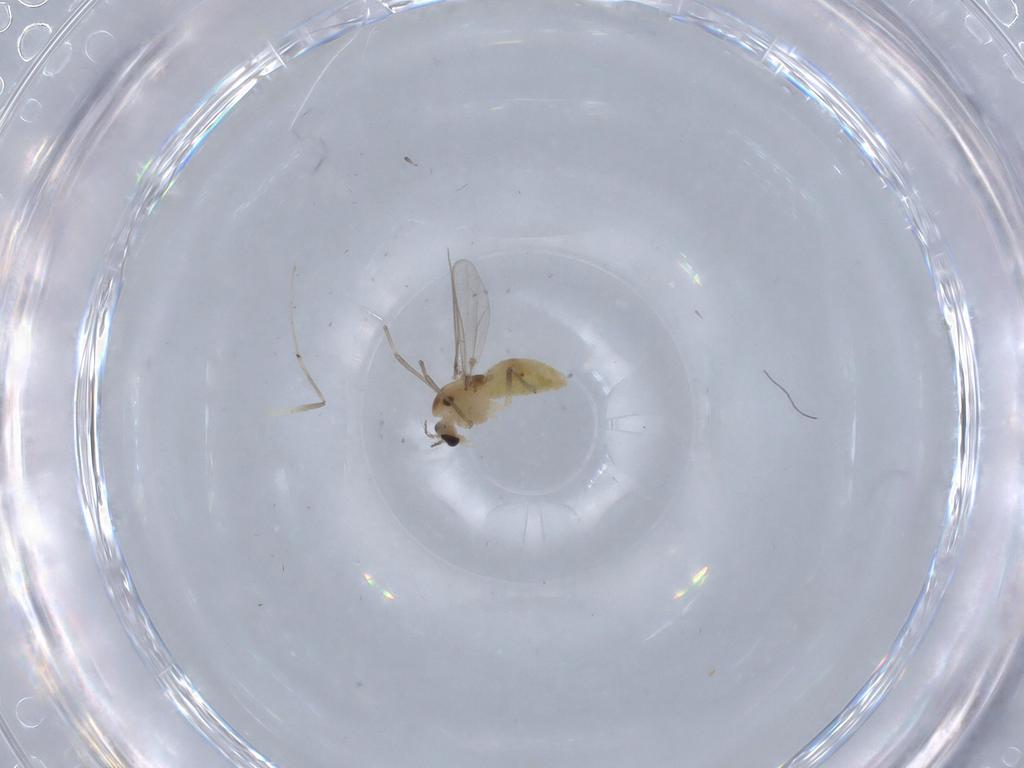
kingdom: Animalia
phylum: Arthropoda
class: Insecta
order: Diptera
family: Chironomidae
